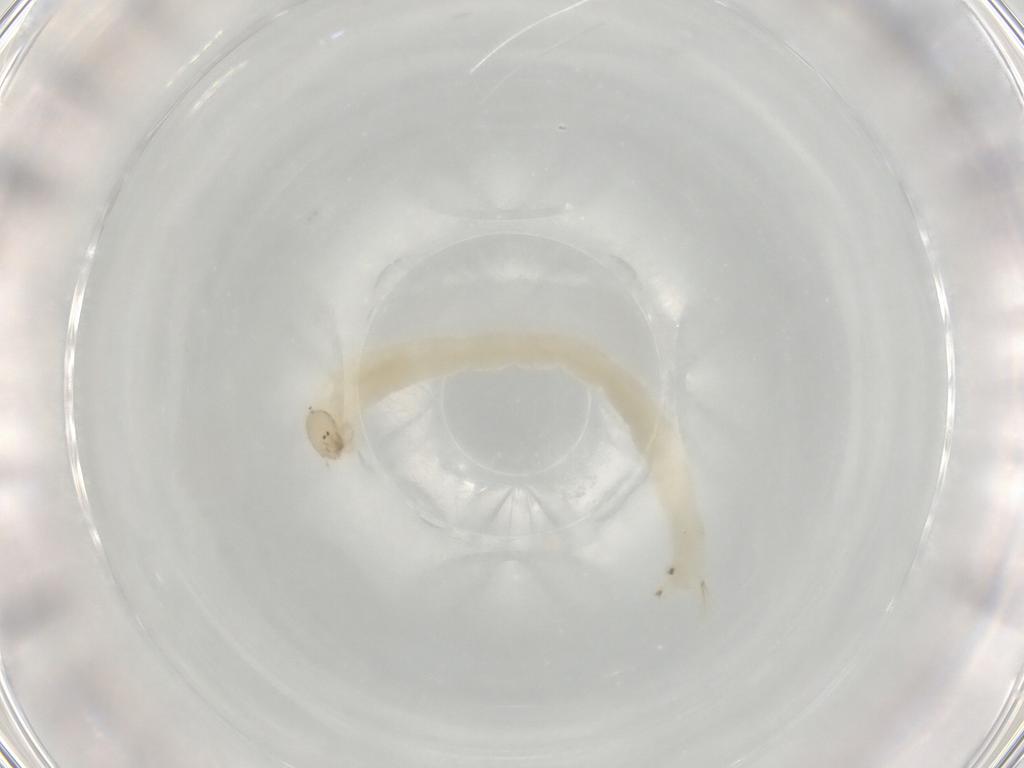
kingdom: Animalia
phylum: Arthropoda
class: Insecta
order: Diptera
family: Chironomidae
